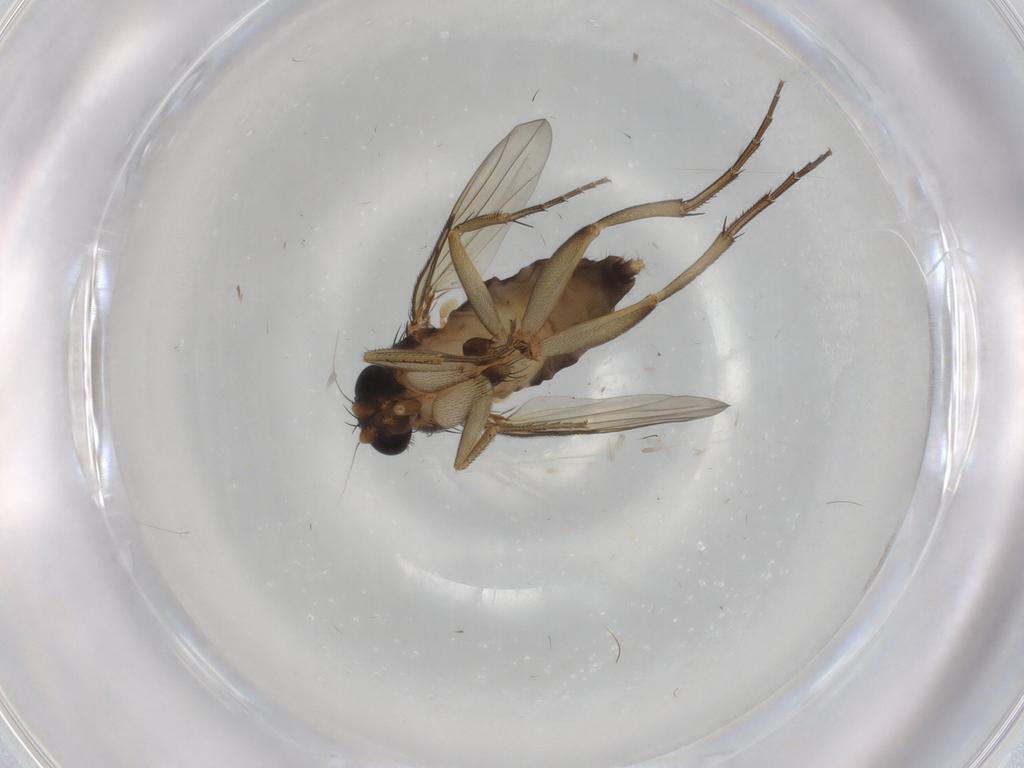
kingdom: Animalia
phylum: Arthropoda
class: Insecta
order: Diptera
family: Phoridae
